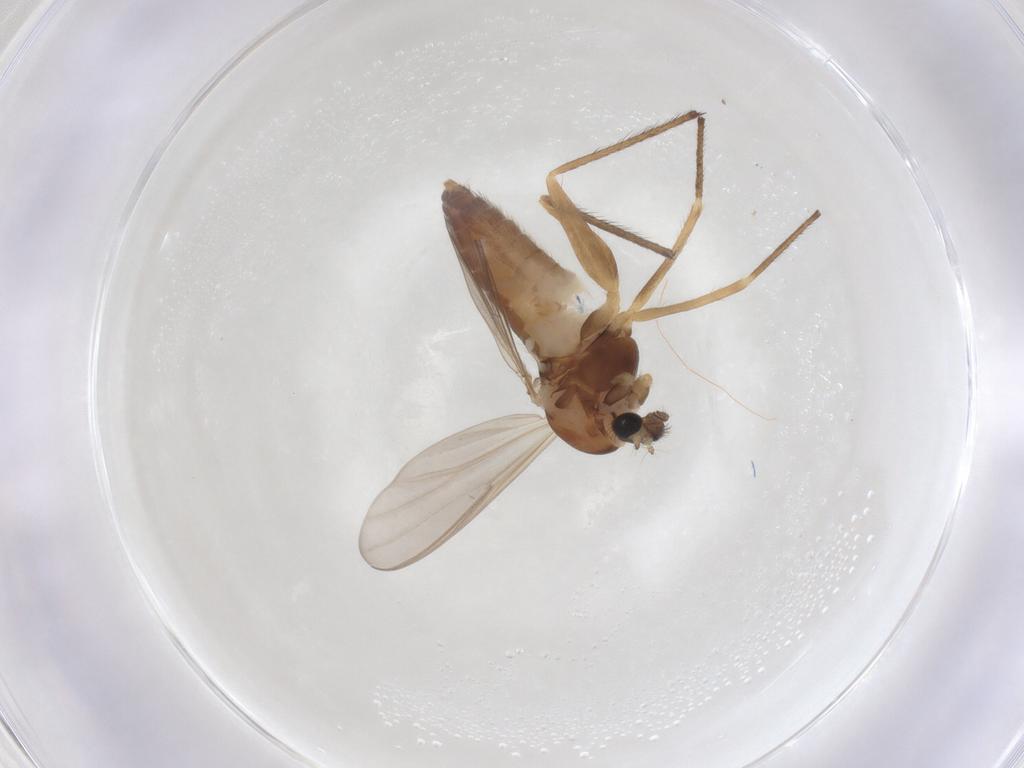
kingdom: Animalia
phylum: Arthropoda
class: Insecta
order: Diptera
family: Chironomidae
